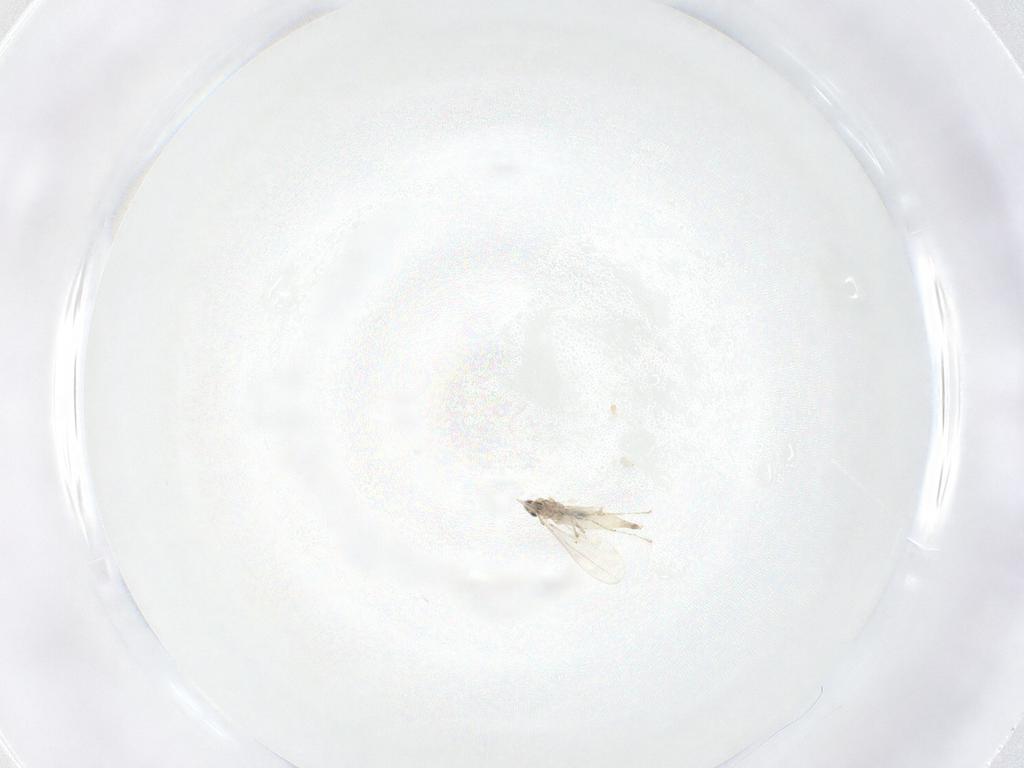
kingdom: Animalia
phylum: Arthropoda
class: Insecta
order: Diptera
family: Cecidomyiidae
